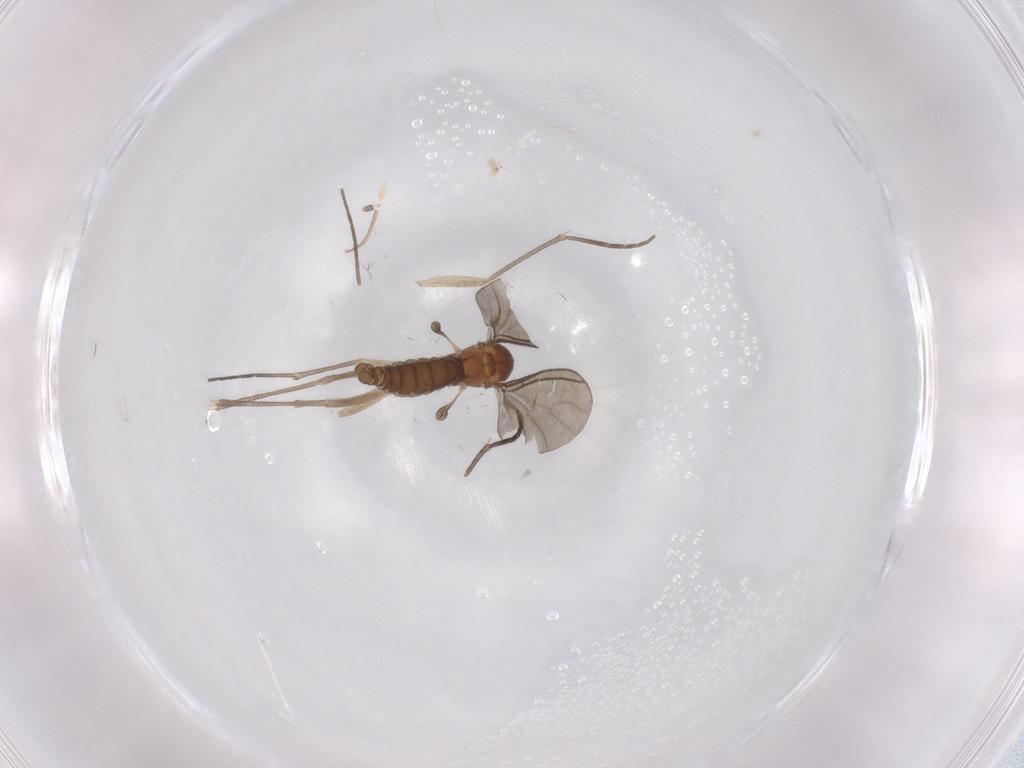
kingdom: Animalia
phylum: Arthropoda
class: Insecta
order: Diptera
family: Sciaridae
